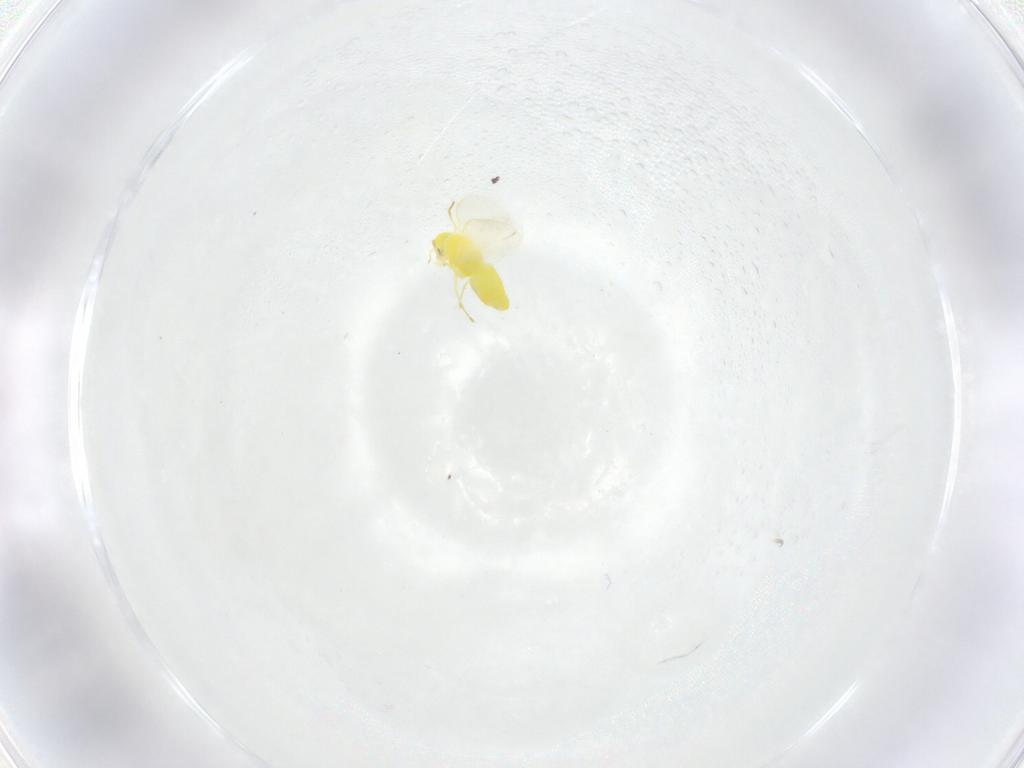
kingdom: Animalia
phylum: Arthropoda
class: Insecta
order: Hemiptera
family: Aleyrodidae
